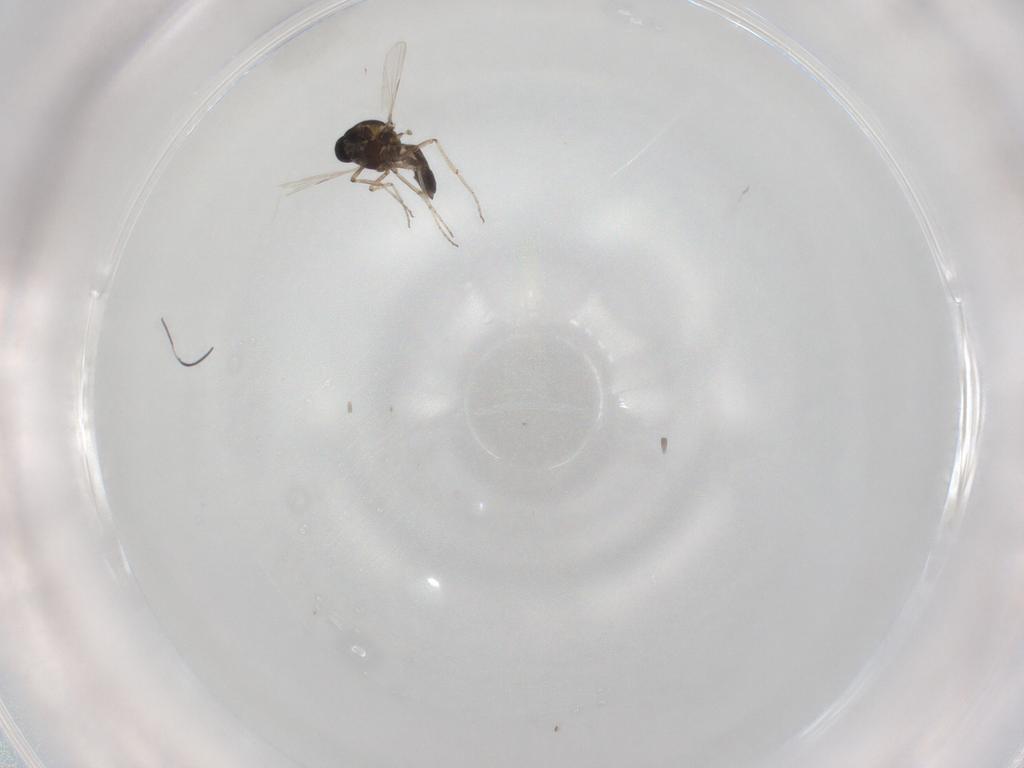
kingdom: Animalia
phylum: Arthropoda
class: Insecta
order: Diptera
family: Ceratopogonidae
